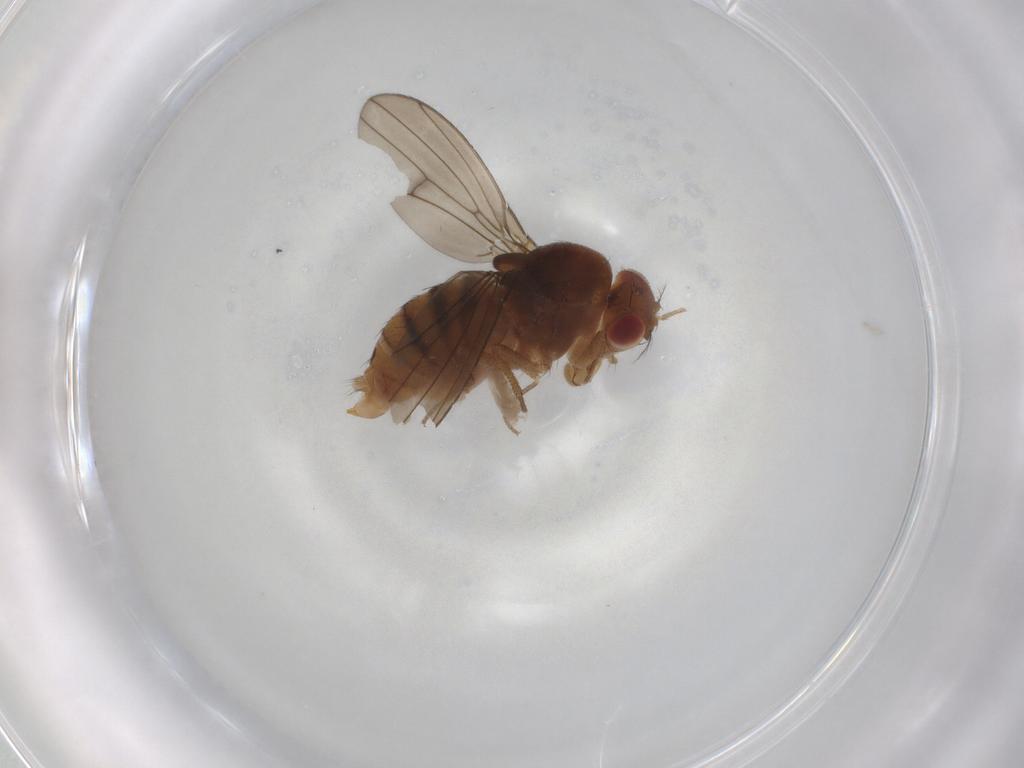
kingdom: Animalia
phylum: Arthropoda
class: Insecta
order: Diptera
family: Drosophilidae
